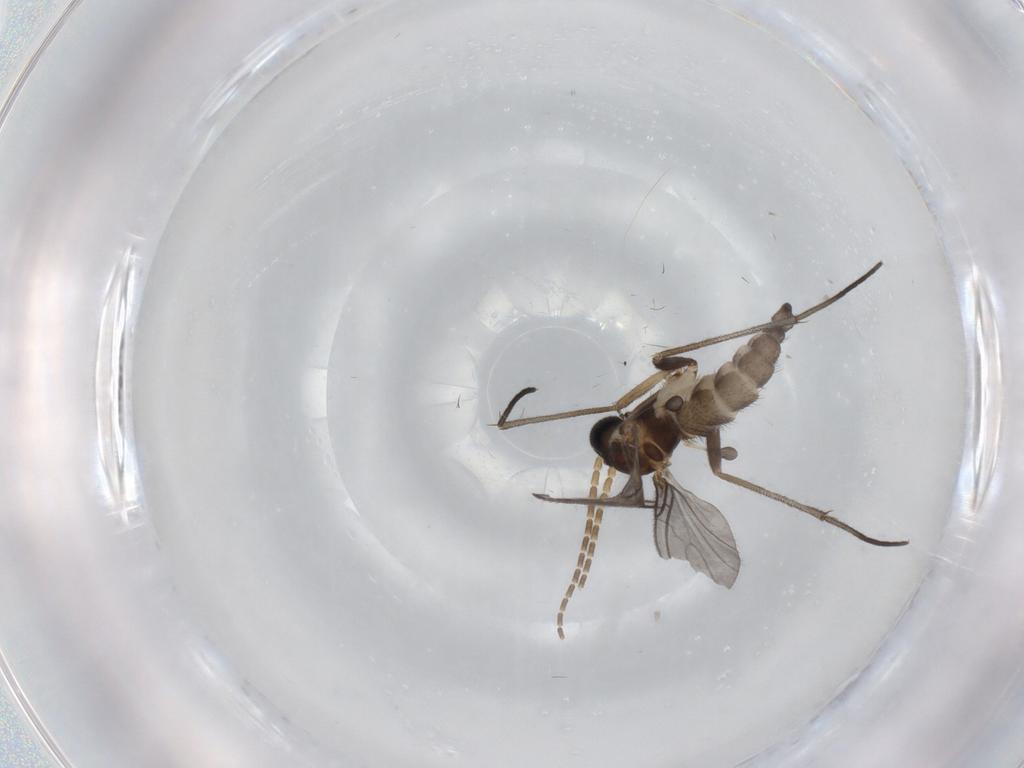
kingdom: Animalia
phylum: Arthropoda
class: Insecta
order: Diptera
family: Sciaridae
